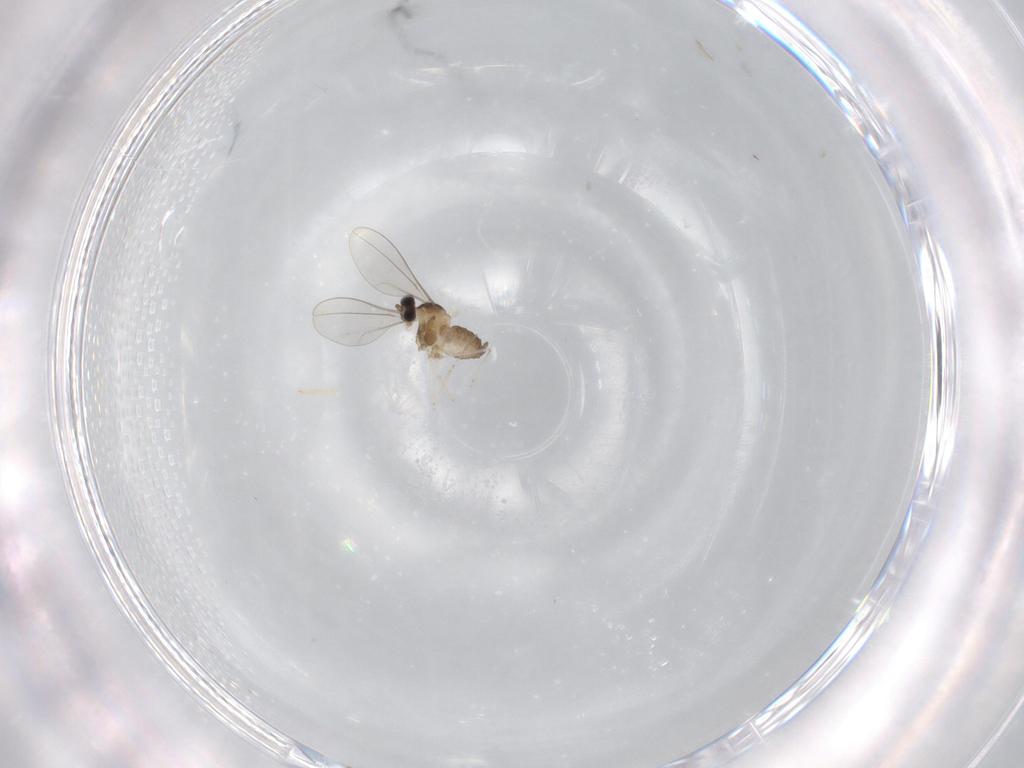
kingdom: Animalia
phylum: Arthropoda
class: Insecta
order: Diptera
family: Cecidomyiidae
